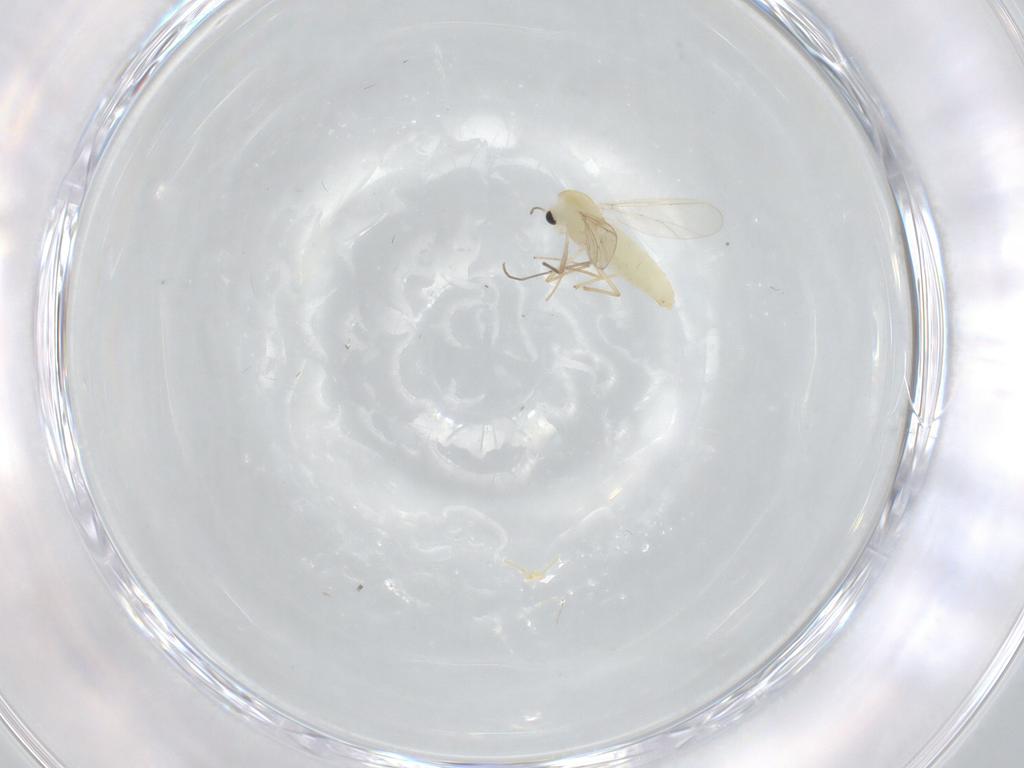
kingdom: Animalia
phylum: Arthropoda
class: Insecta
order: Diptera
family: Chironomidae
